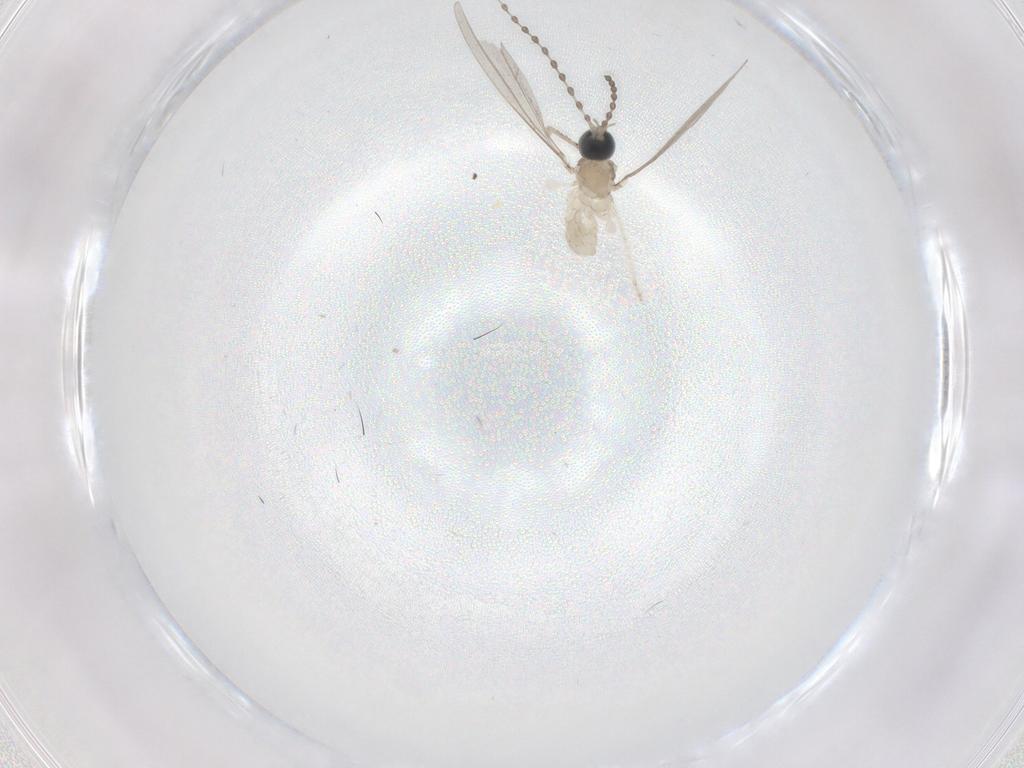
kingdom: Animalia
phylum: Arthropoda
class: Insecta
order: Diptera
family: Cecidomyiidae
